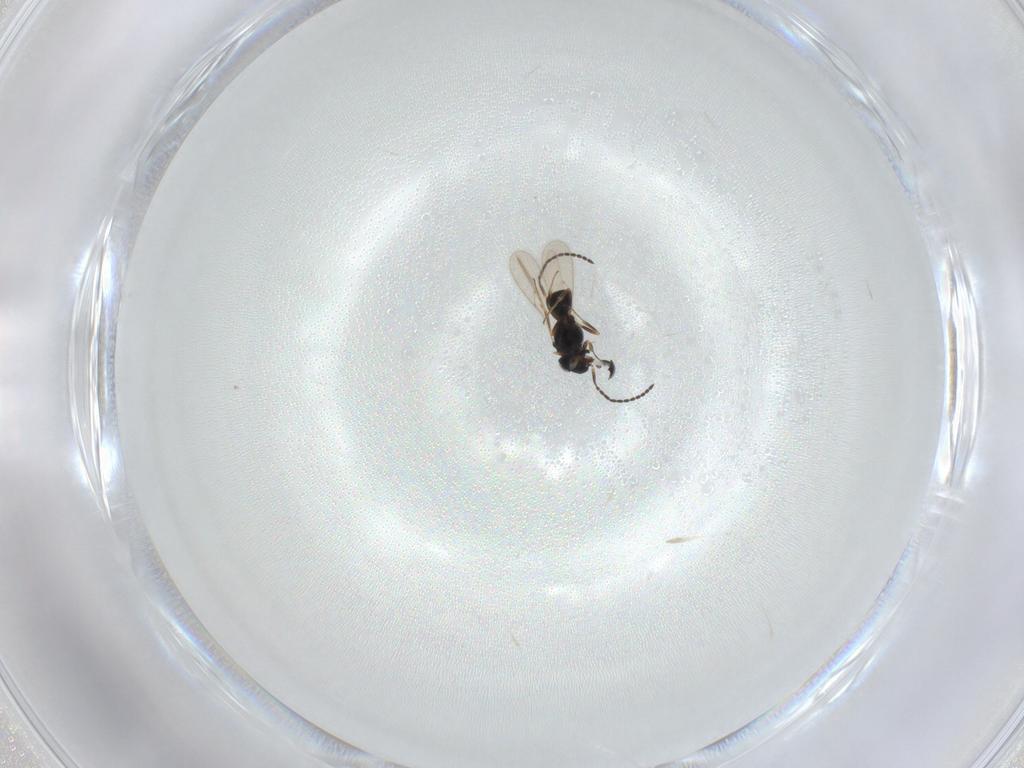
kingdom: Animalia
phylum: Arthropoda
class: Insecta
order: Hymenoptera
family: Scelionidae
